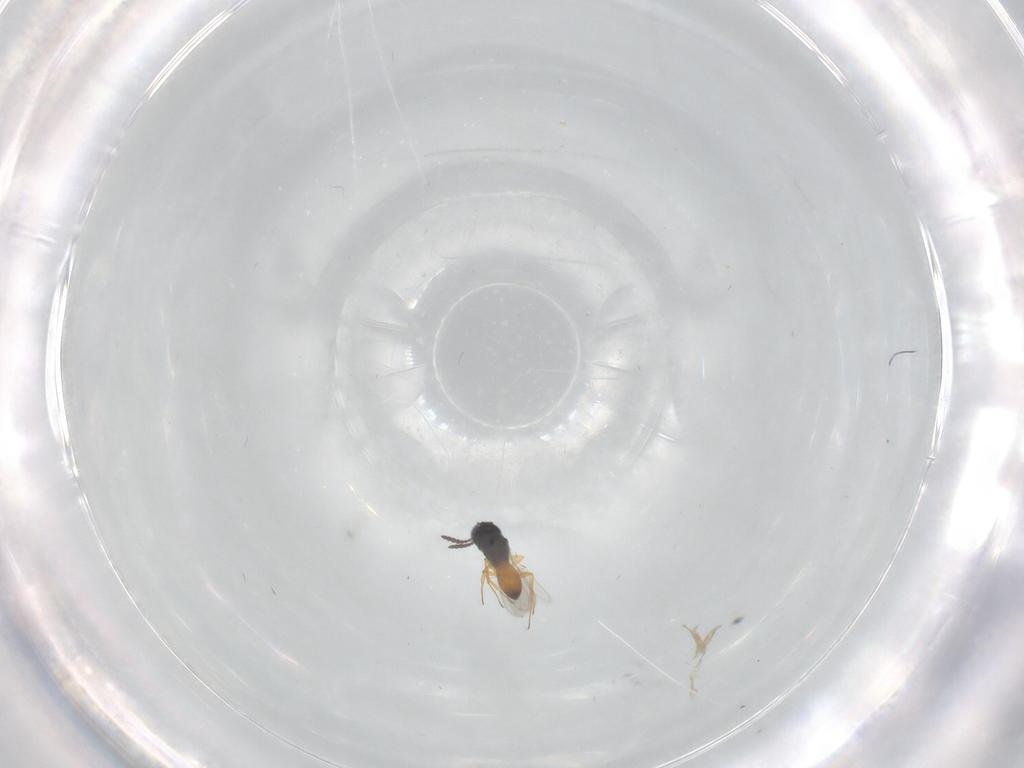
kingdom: Animalia
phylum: Arthropoda
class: Insecta
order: Hymenoptera
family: Scelionidae
